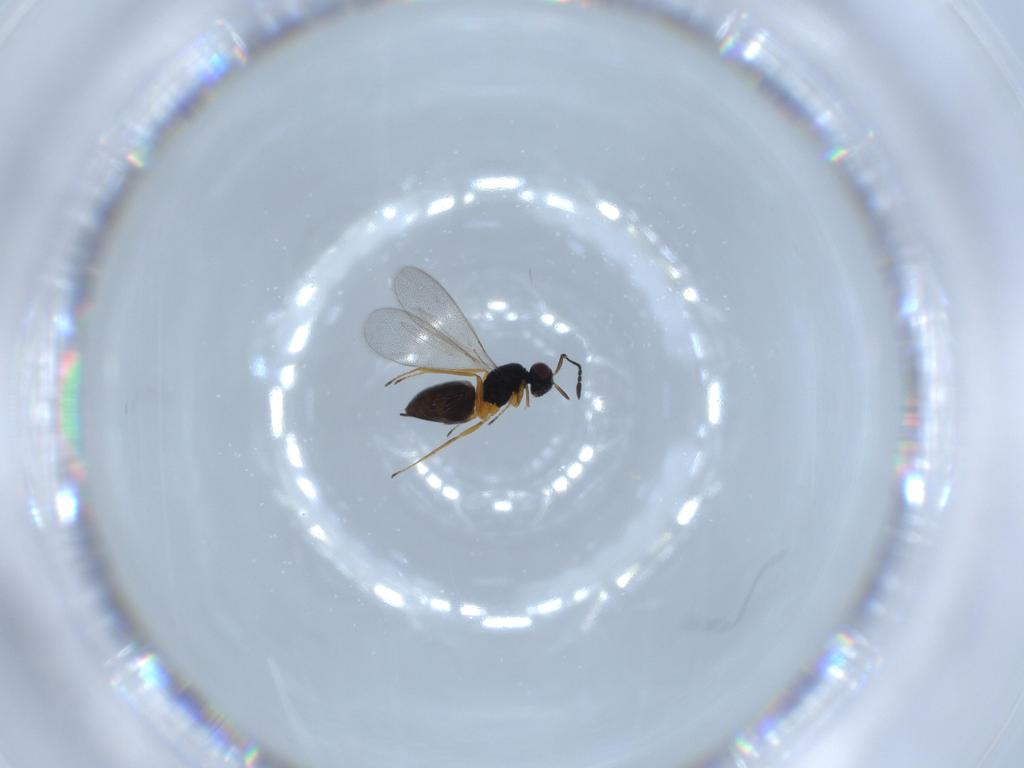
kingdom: Animalia
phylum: Arthropoda
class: Insecta
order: Hymenoptera
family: Mymaridae
